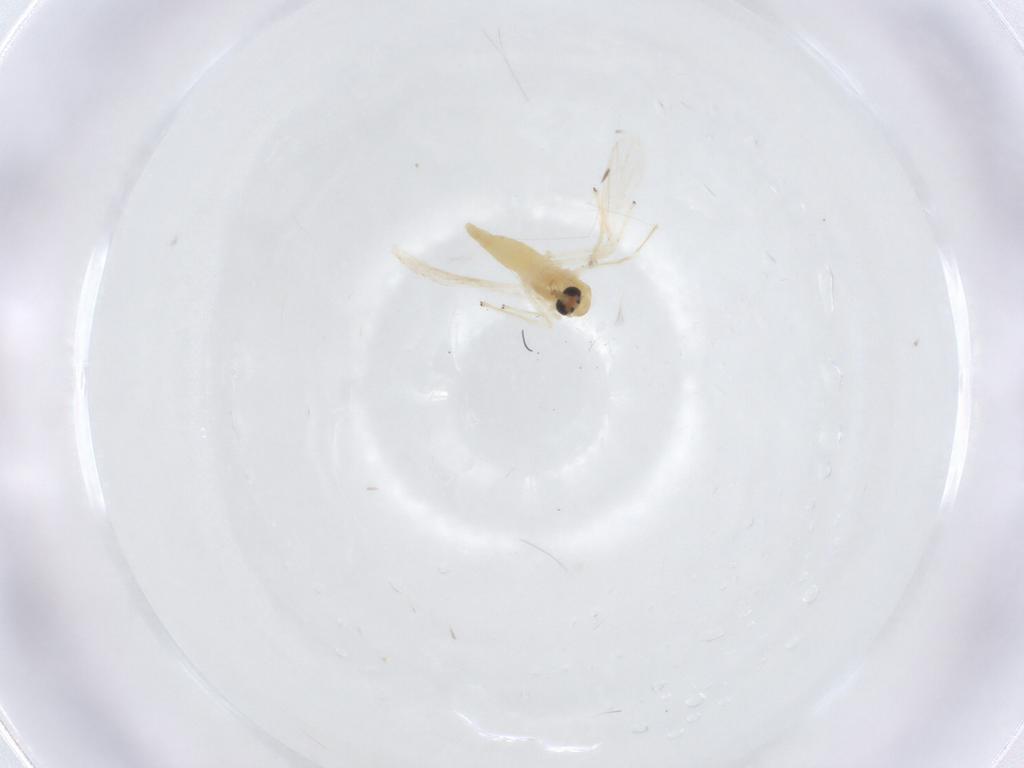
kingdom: Animalia
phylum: Arthropoda
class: Insecta
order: Diptera
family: Chironomidae
